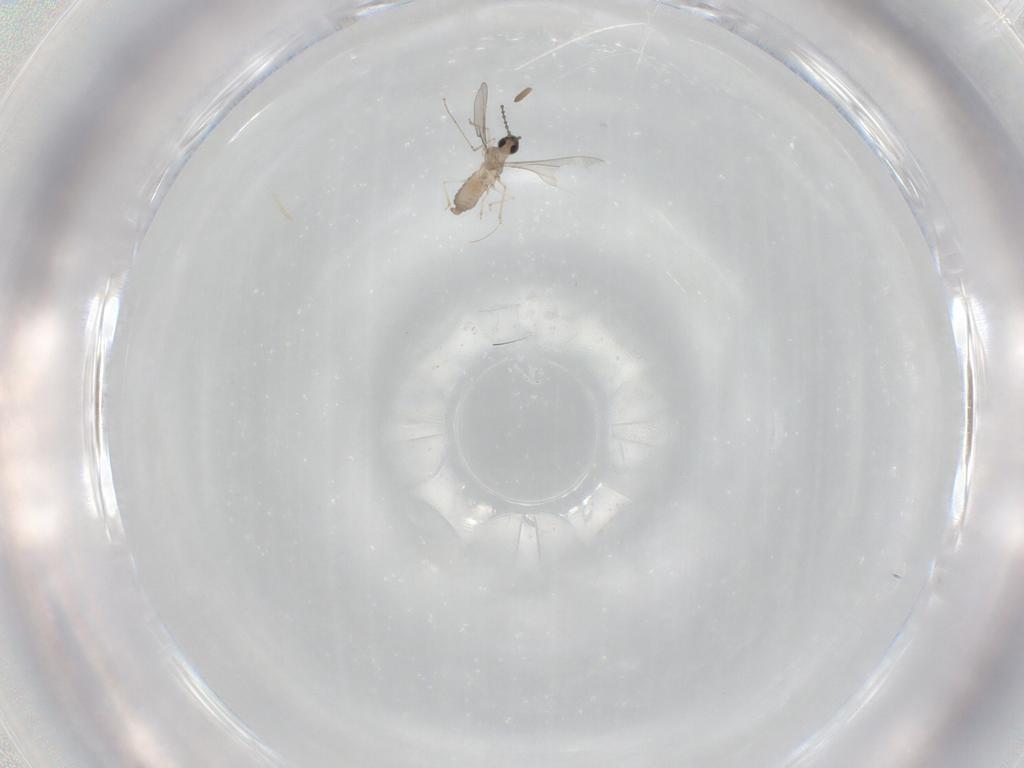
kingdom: Animalia
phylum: Arthropoda
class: Insecta
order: Diptera
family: Cecidomyiidae
